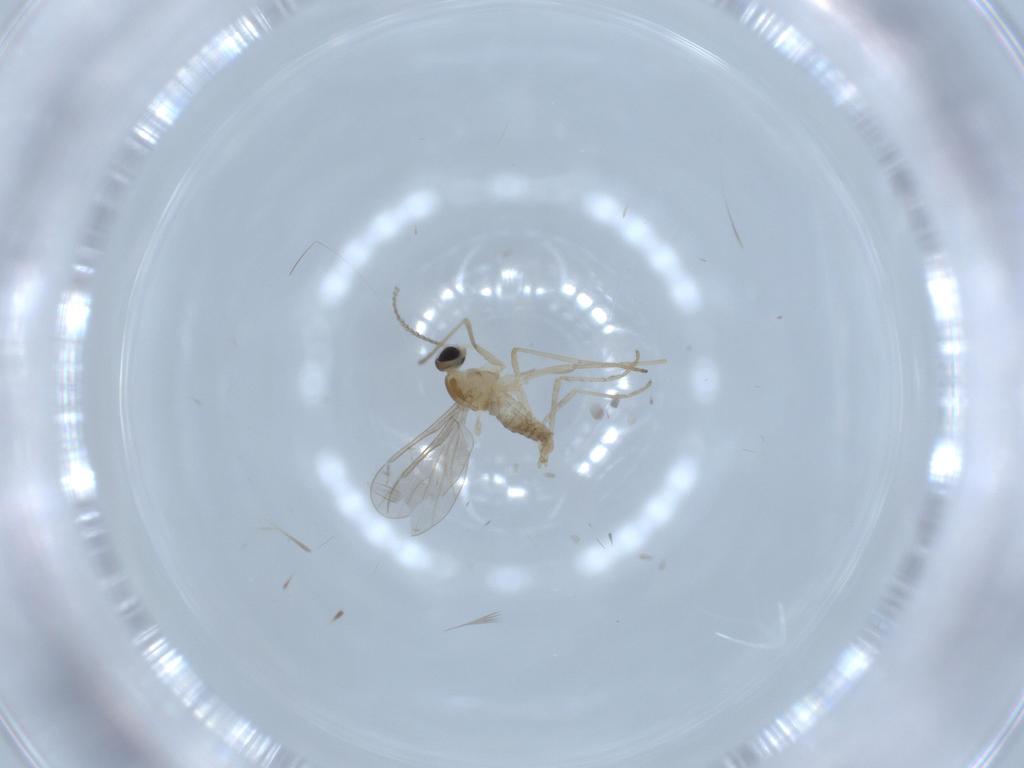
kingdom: Animalia
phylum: Arthropoda
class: Insecta
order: Diptera
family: Cecidomyiidae
